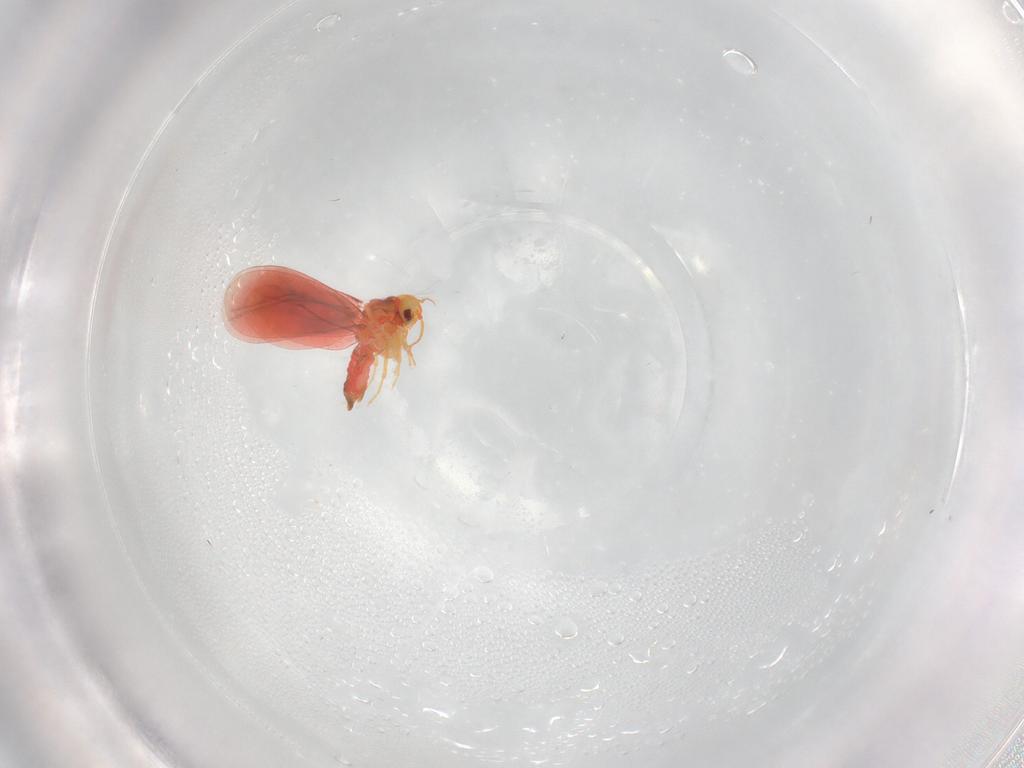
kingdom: Animalia
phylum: Arthropoda
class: Insecta
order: Hemiptera
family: Aleyrodidae
